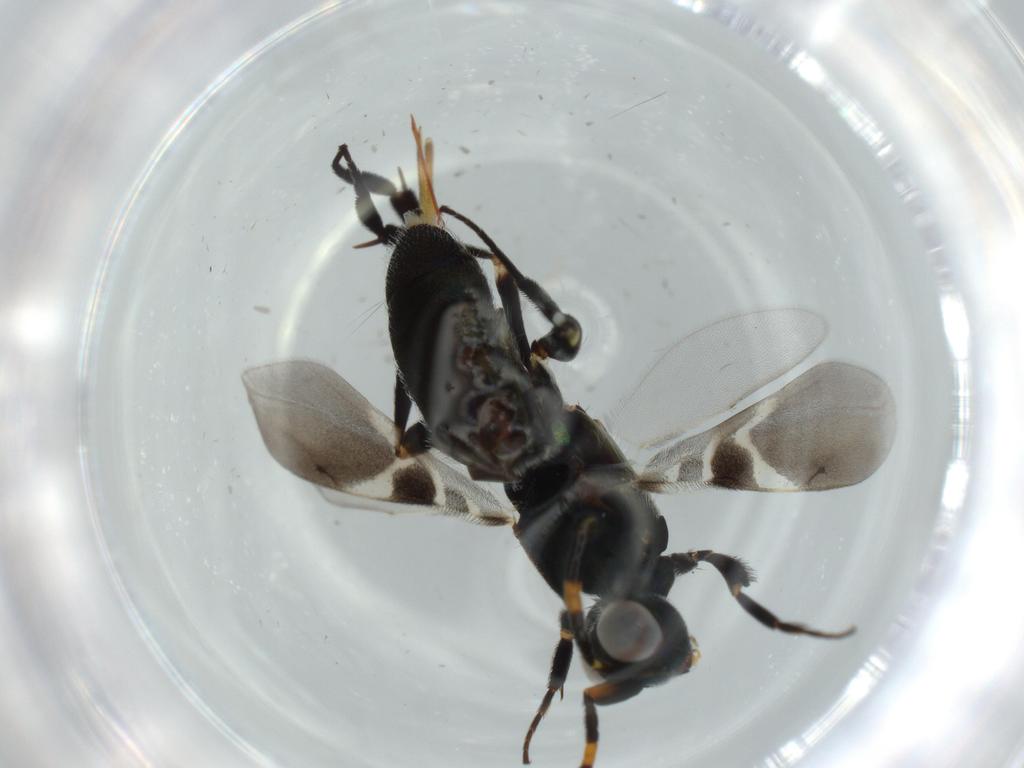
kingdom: Animalia
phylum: Arthropoda
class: Insecta
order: Hymenoptera
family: Eupelmidae
